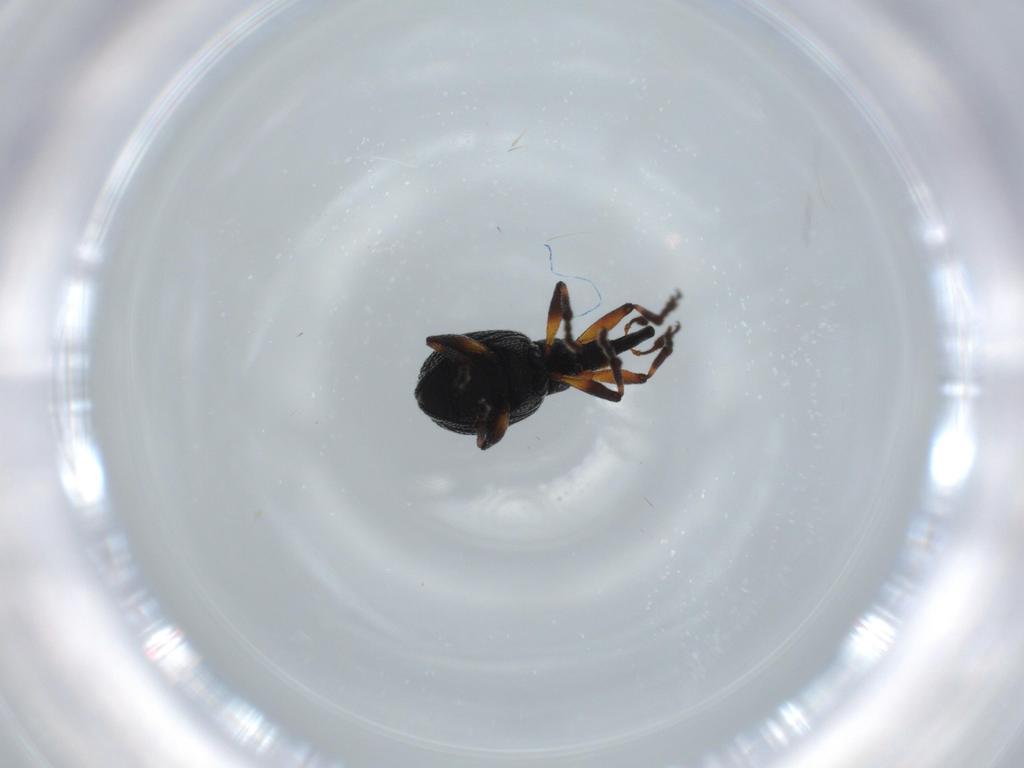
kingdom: Animalia
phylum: Arthropoda
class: Insecta
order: Coleoptera
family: Brentidae
